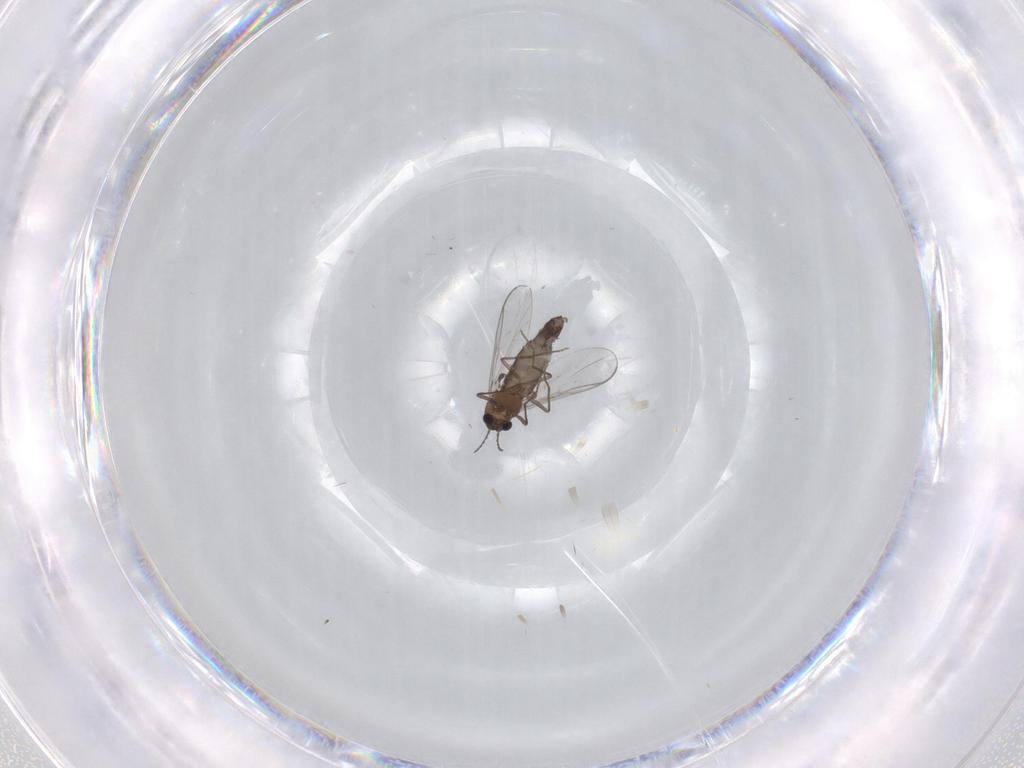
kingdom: Animalia
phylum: Arthropoda
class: Insecta
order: Diptera
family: Chironomidae
